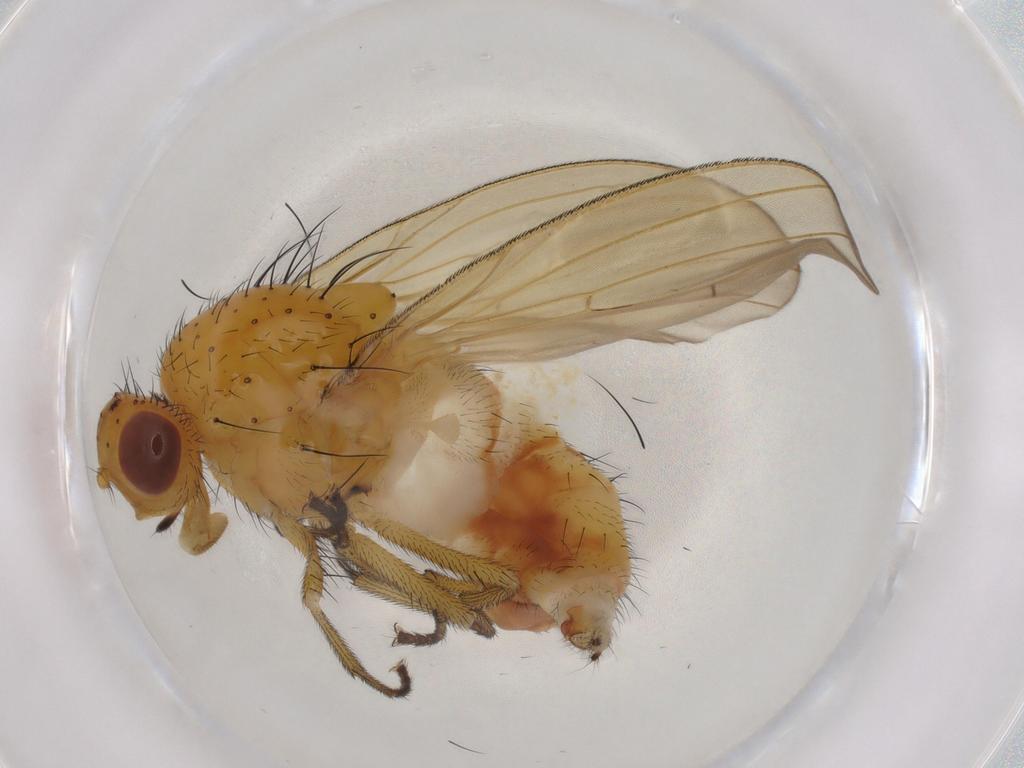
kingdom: Animalia
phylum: Arthropoda
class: Insecta
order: Diptera
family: Lauxaniidae
